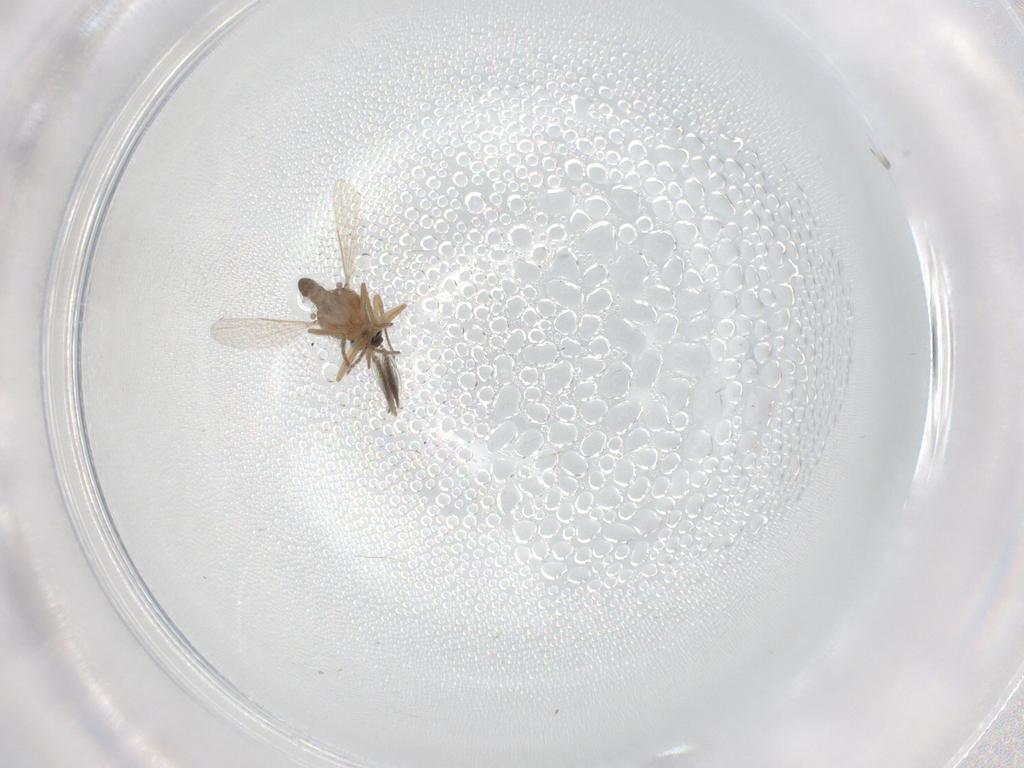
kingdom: Animalia
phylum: Arthropoda
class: Insecta
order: Diptera
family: Ceratopogonidae
